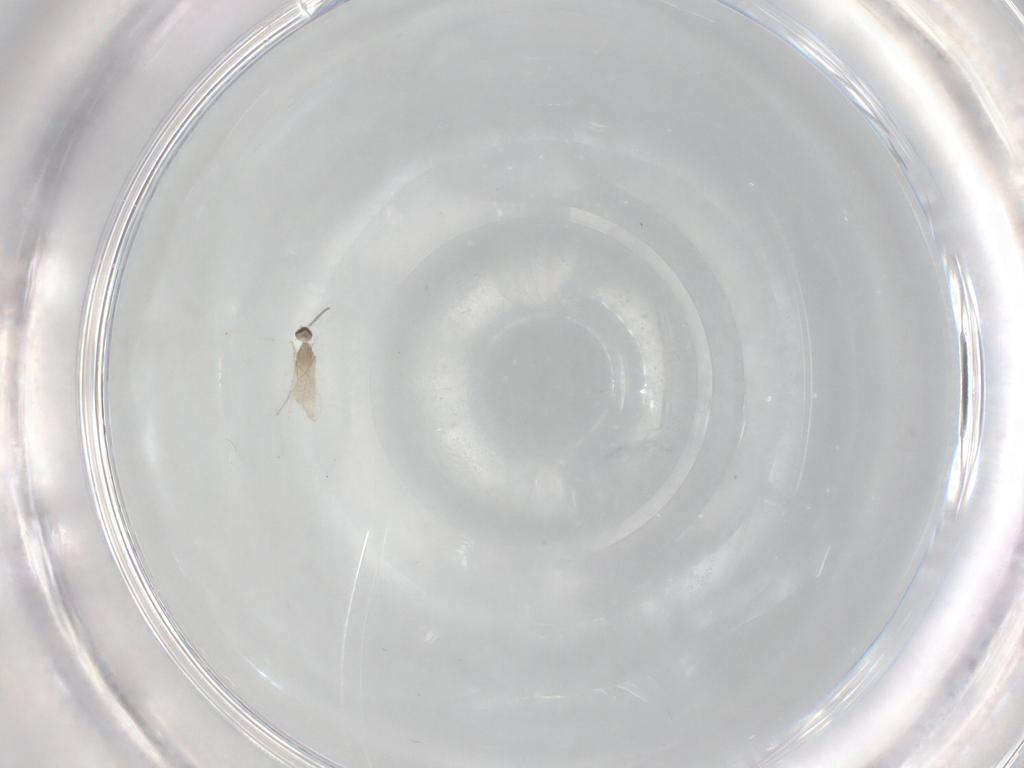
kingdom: Animalia
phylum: Arthropoda
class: Insecta
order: Diptera
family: Cecidomyiidae
